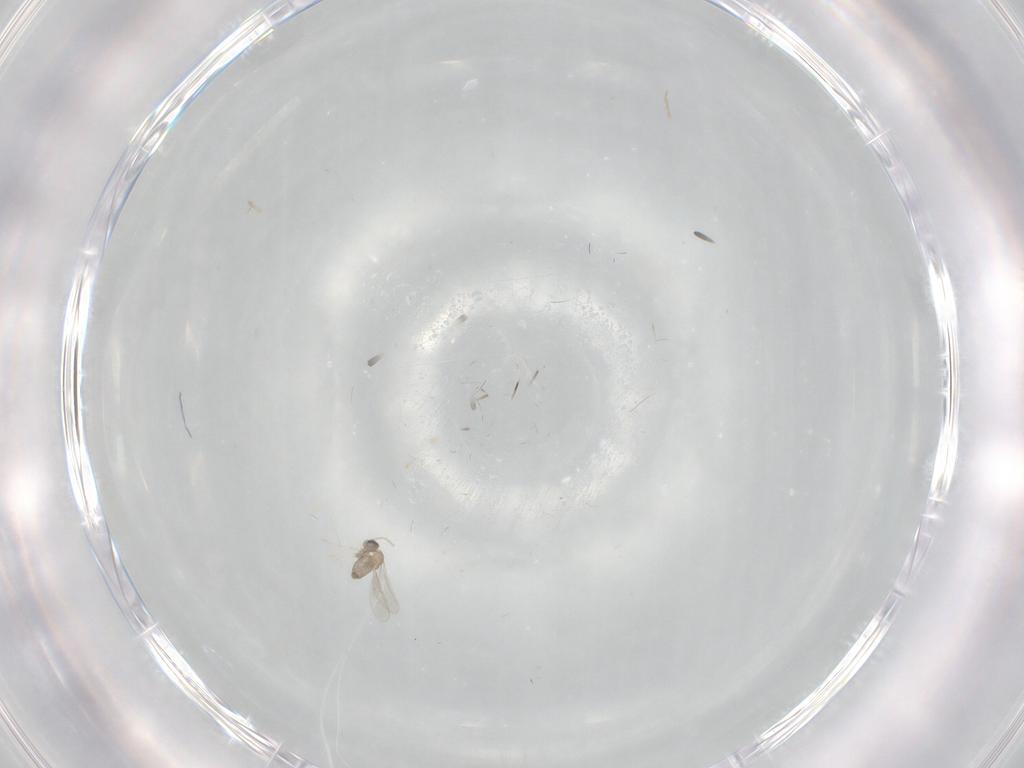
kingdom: Animalia
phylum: Arthropoda
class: Insecta
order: Diptera
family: Cecidomyiidae
